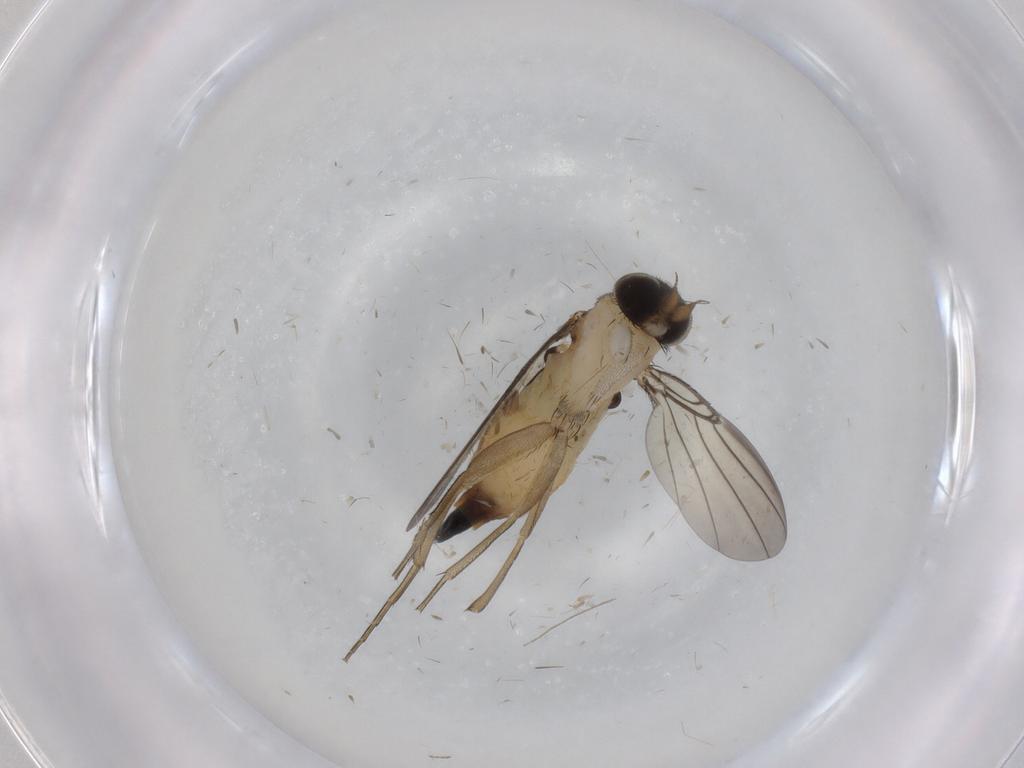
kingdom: Animalia
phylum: Arthropoda
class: Insecta
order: Diptera
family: Phoridae
